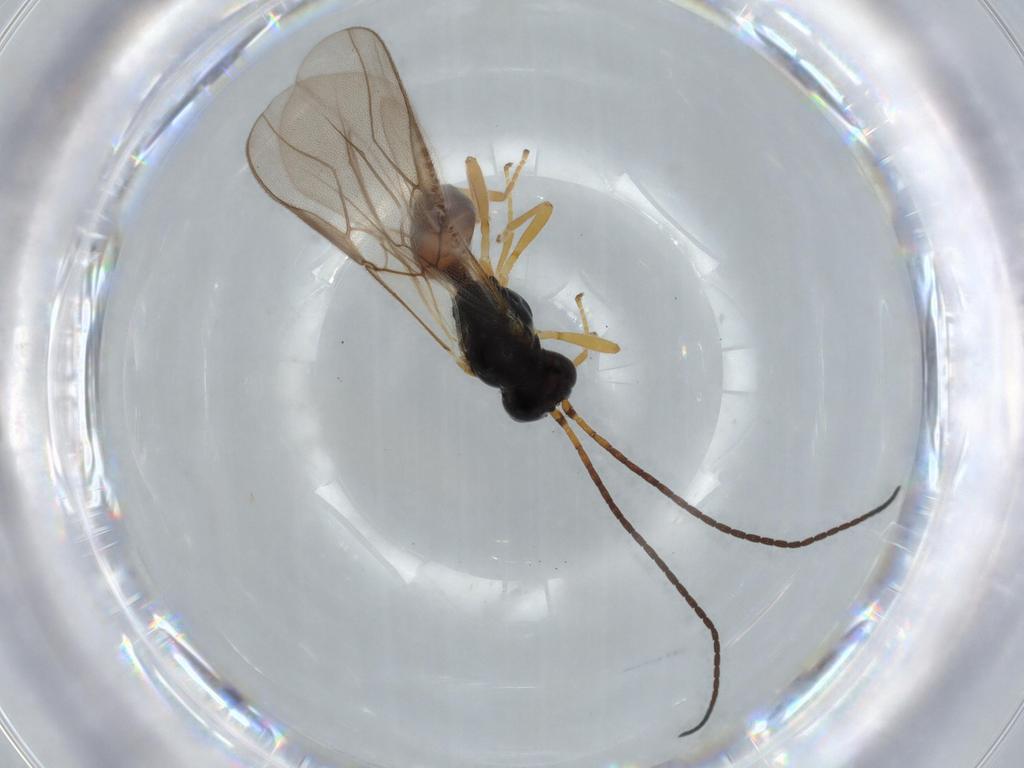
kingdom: Animalia
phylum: Arthropoda
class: Insecta
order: Hymenoptera
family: Braconidae
